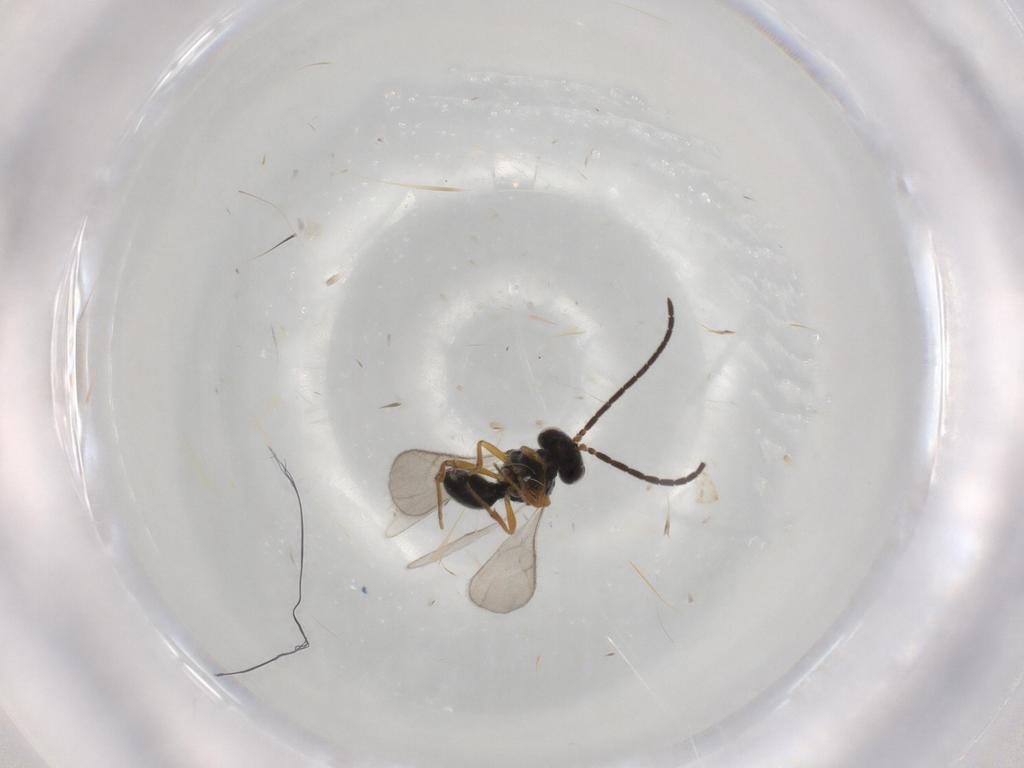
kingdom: Animalia
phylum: Arthropoda
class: Insecta
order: Hymenoptera
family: Scelionidae
